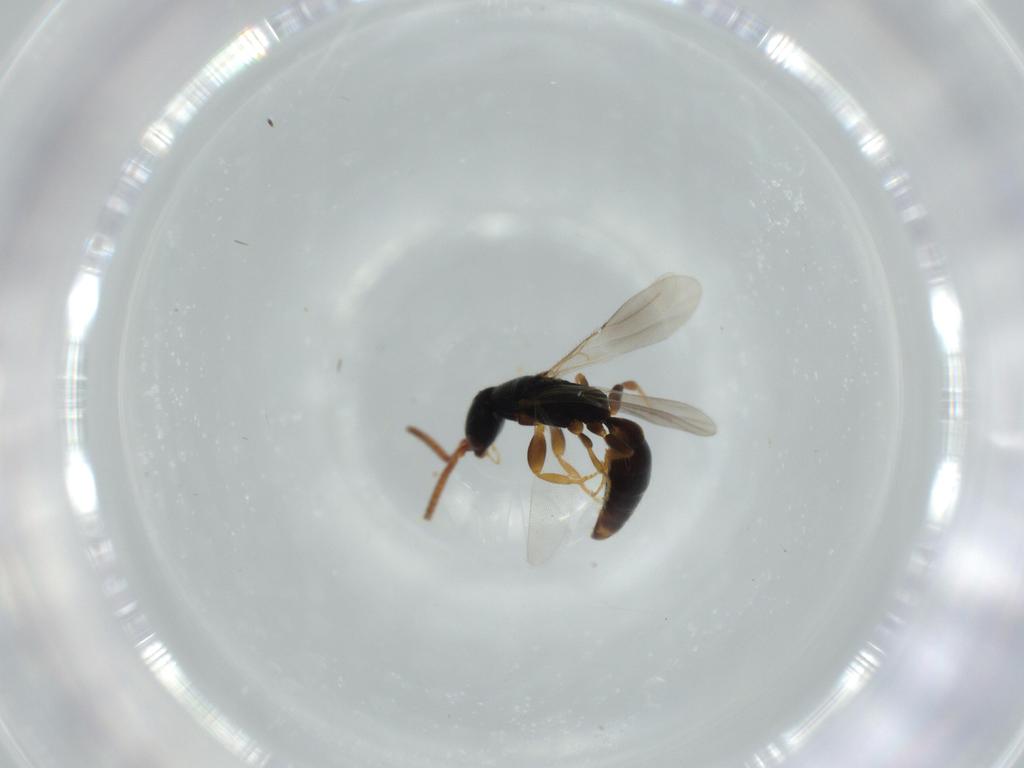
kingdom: Animalia
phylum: Arthropoda
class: Insecta
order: Hymenoptera
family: Bethylidae
